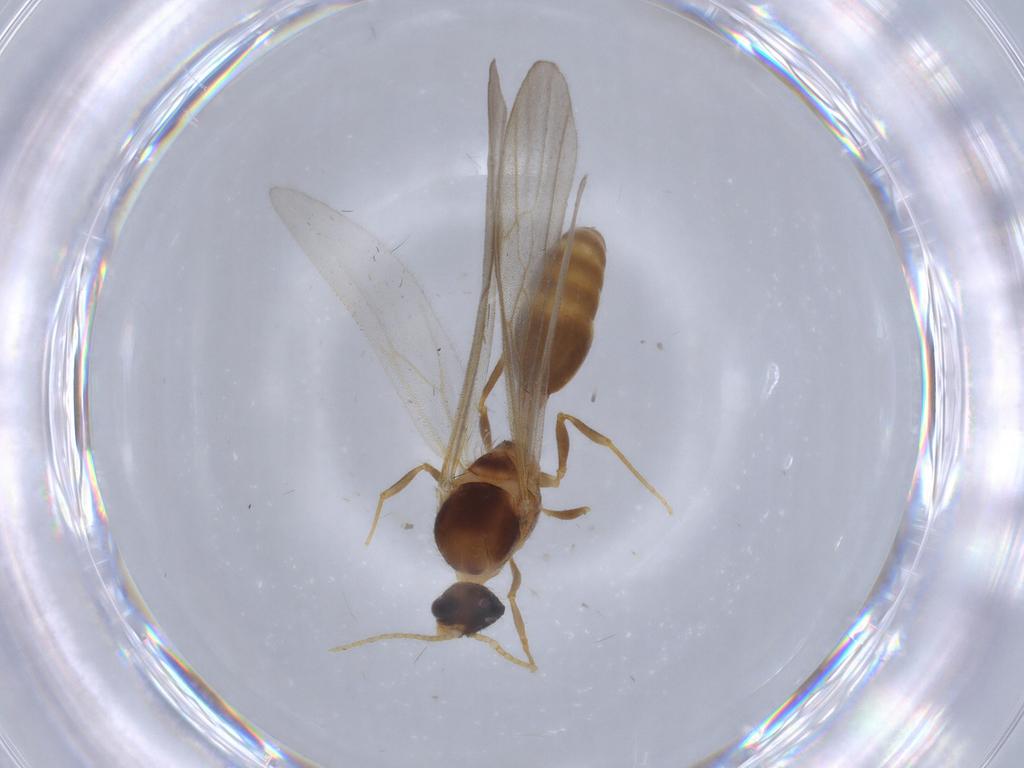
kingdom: Animalia
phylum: Arthropoda
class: Insecta
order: Hymenoptera
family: Formicidae
